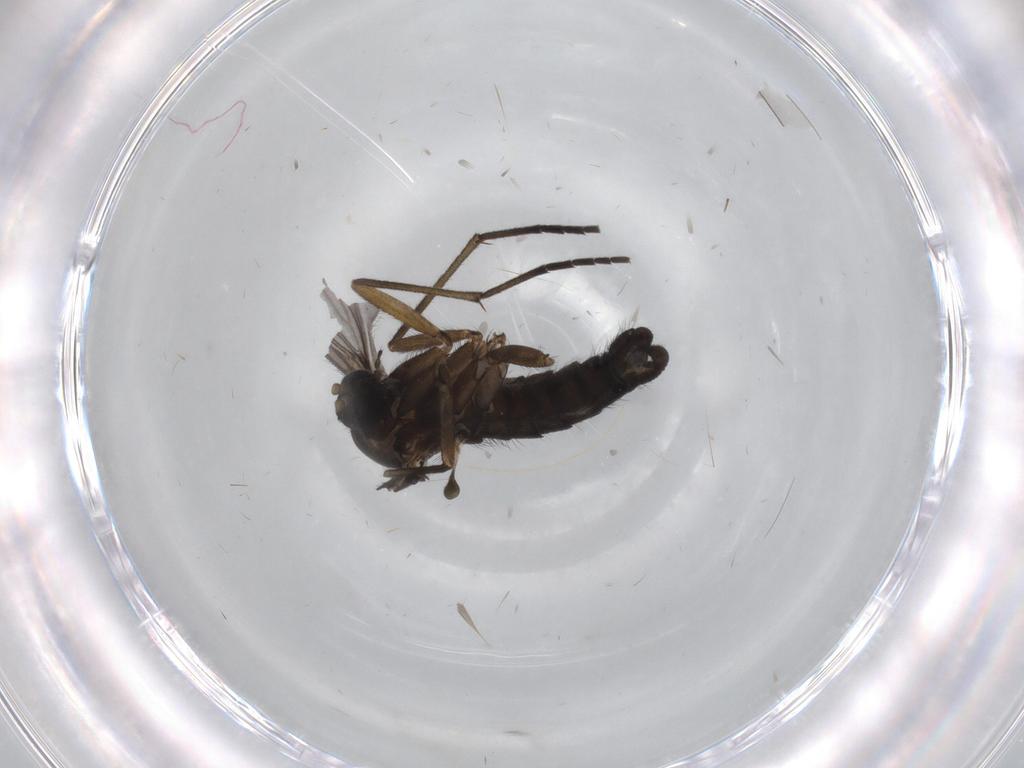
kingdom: Animalia
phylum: Arthropoda
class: Insecta
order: Diptera
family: Sciaridae
